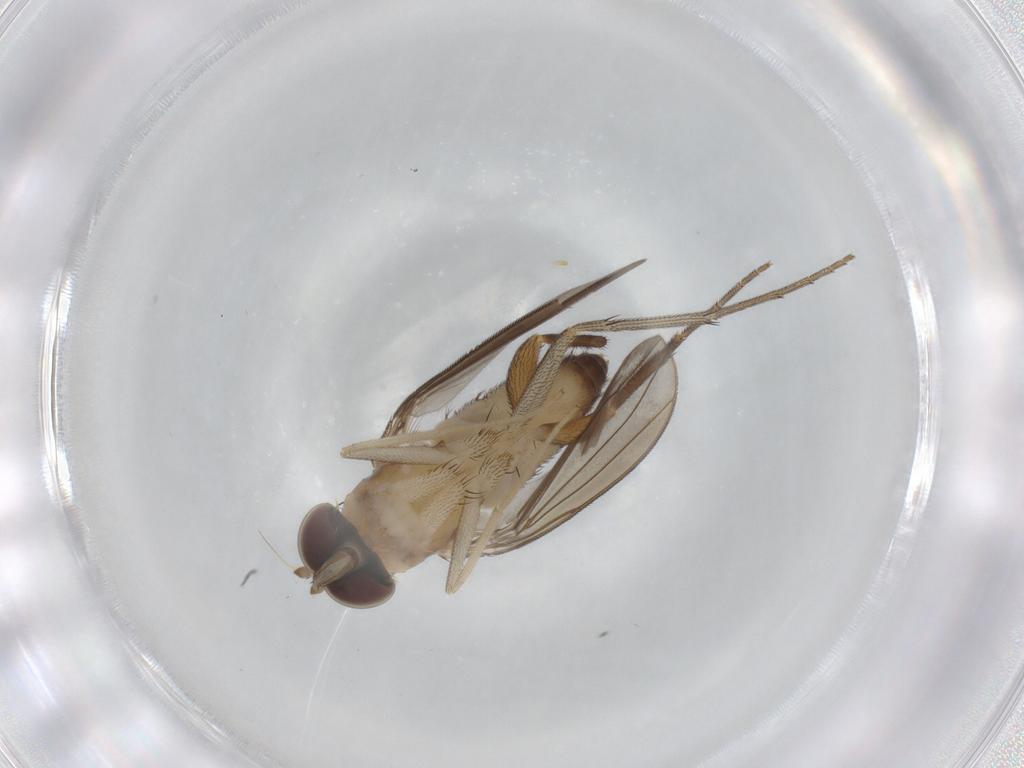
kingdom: Animalia
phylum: Arthropoda
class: Insecta
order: Diptera
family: Dolichopodidae
